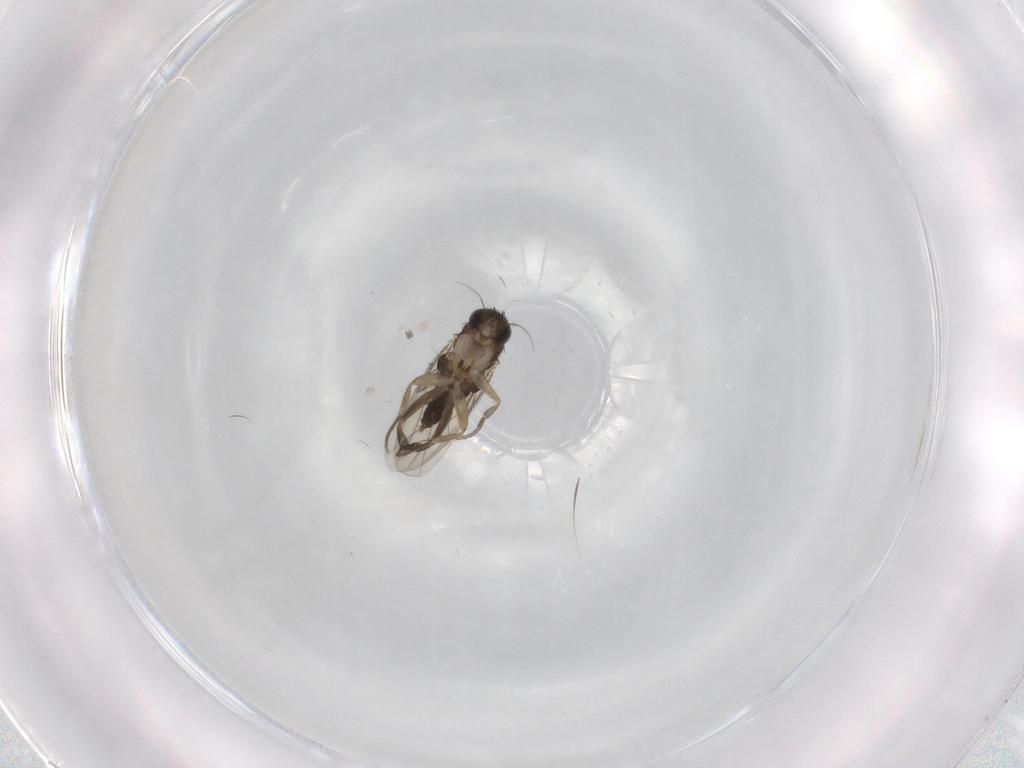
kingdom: Animalia
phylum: Arthropoda
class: Insecta
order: Diptera
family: Phoridae
